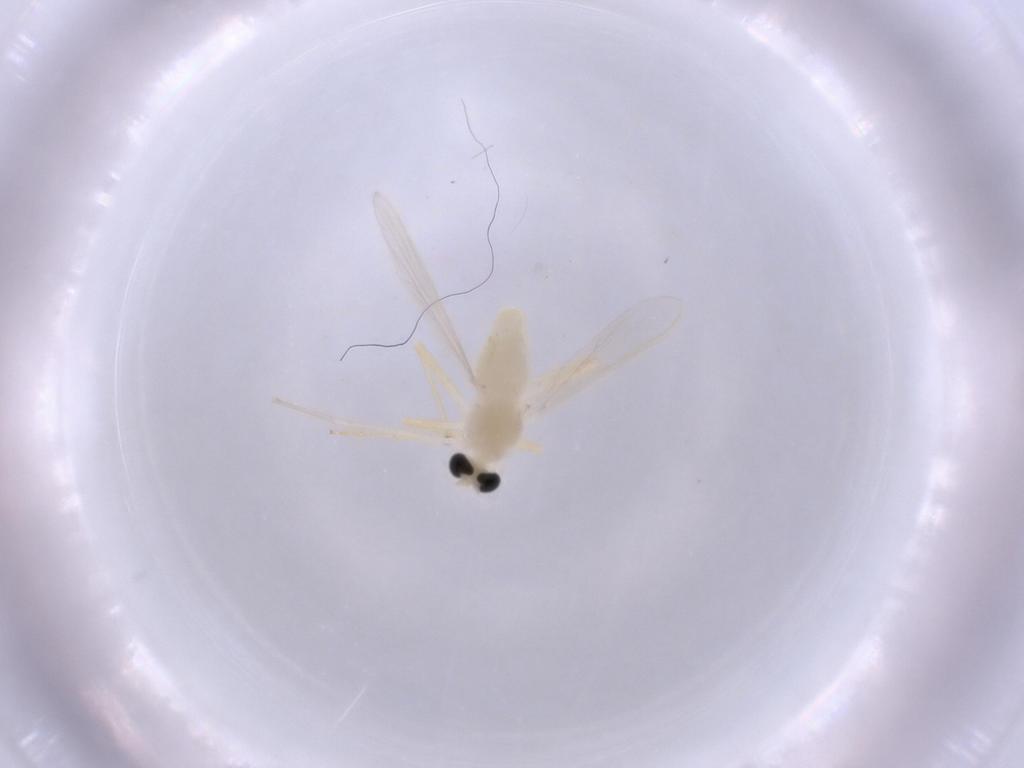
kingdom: Animalia
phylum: Arthropoda
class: Insecta
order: Diptera
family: Chironomidae
